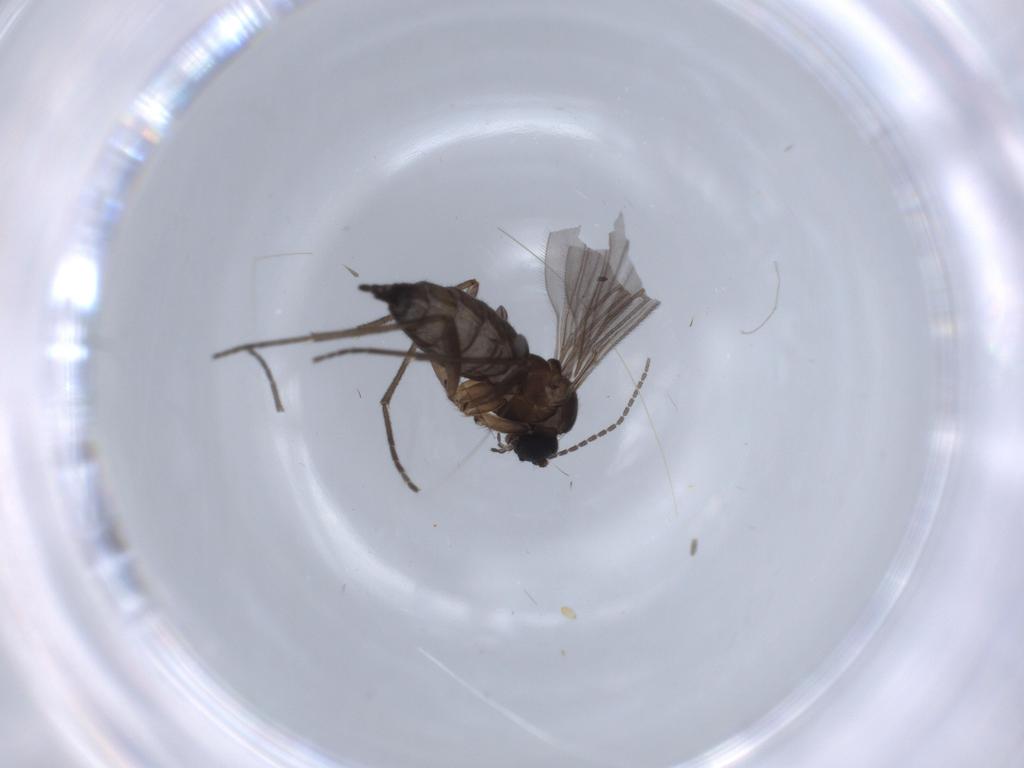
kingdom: Animalia
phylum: Arthropoda
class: Insecta
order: Diptera
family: Sciaridae
